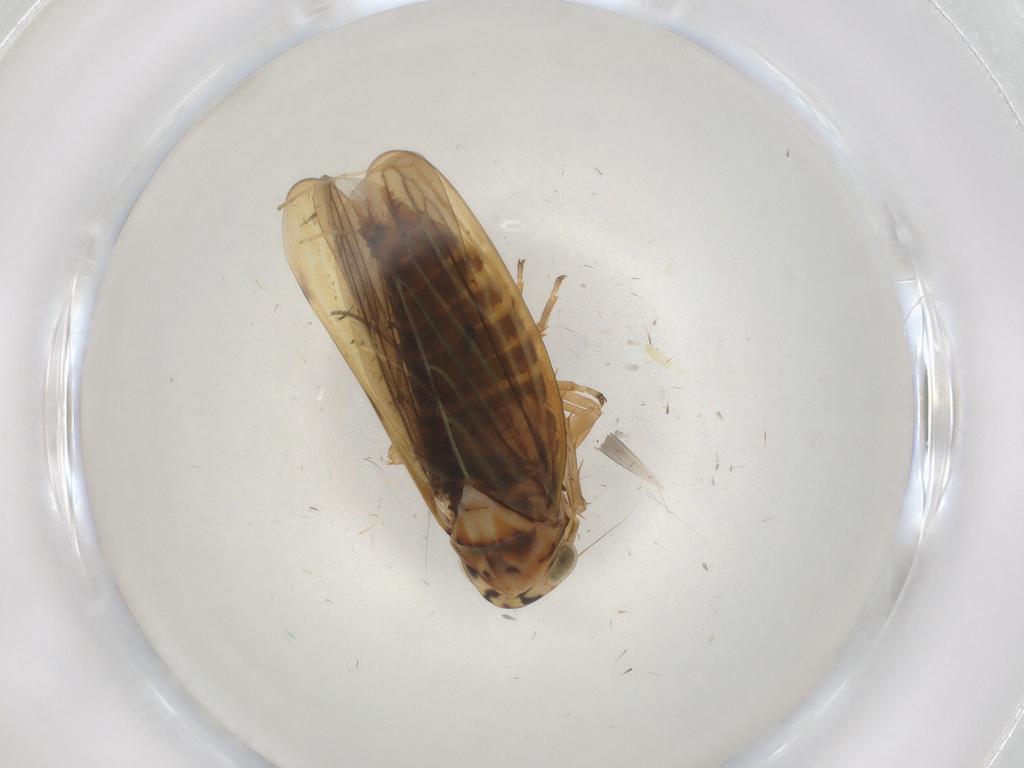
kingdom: Animalia
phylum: Arthropoda
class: Insecta
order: Hemiptera
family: Cicadellidae
